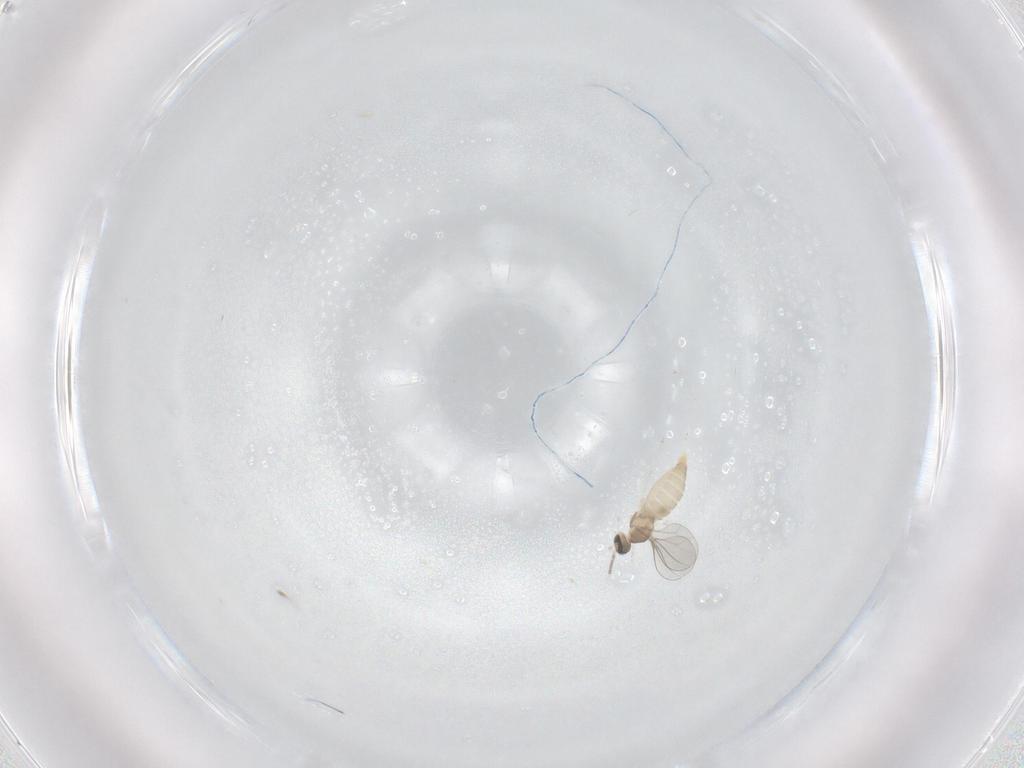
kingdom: Animalia
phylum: Arthropoda
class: Insecta
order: Diptera
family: Cecidomyiidae
